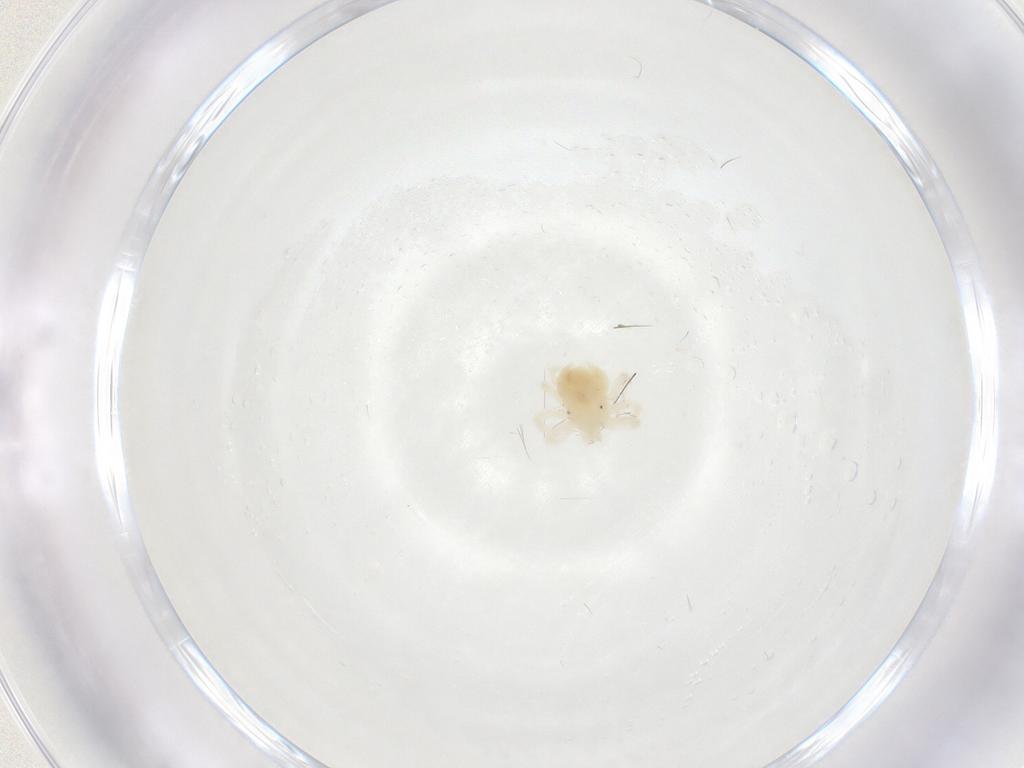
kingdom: Animalia
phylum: Arthropoda
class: Arachnida
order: Trombidiformes
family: Anystidae
